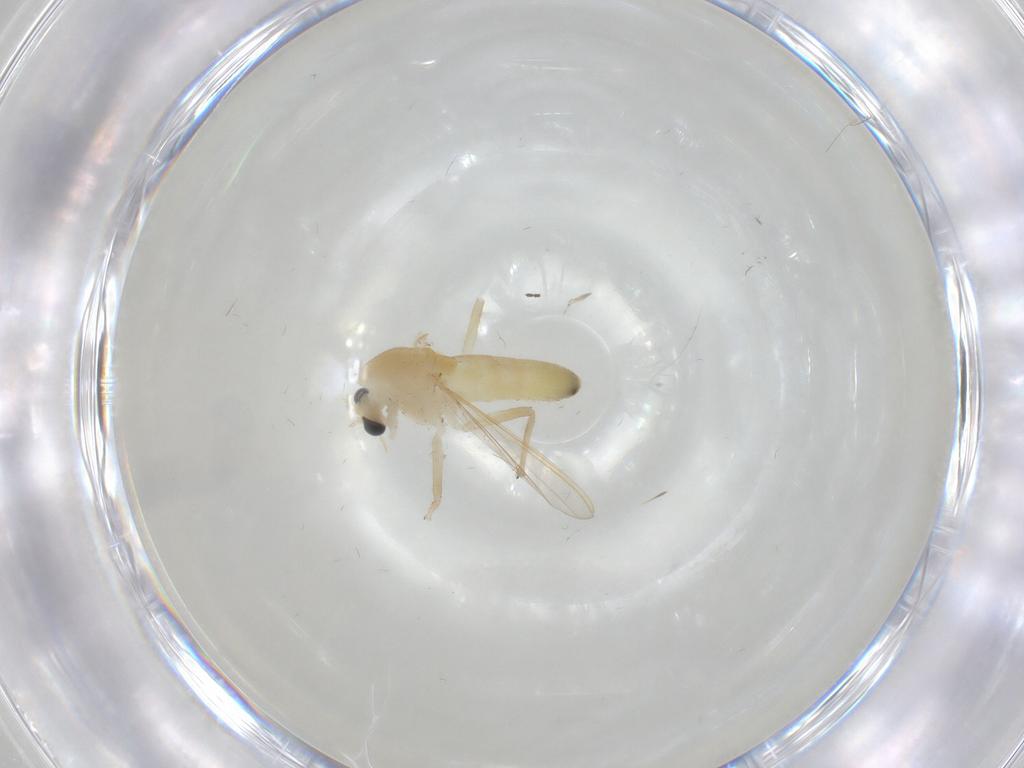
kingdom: Animalia
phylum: Arthropoda
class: Insecta
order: Diptera
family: Chironomidae
